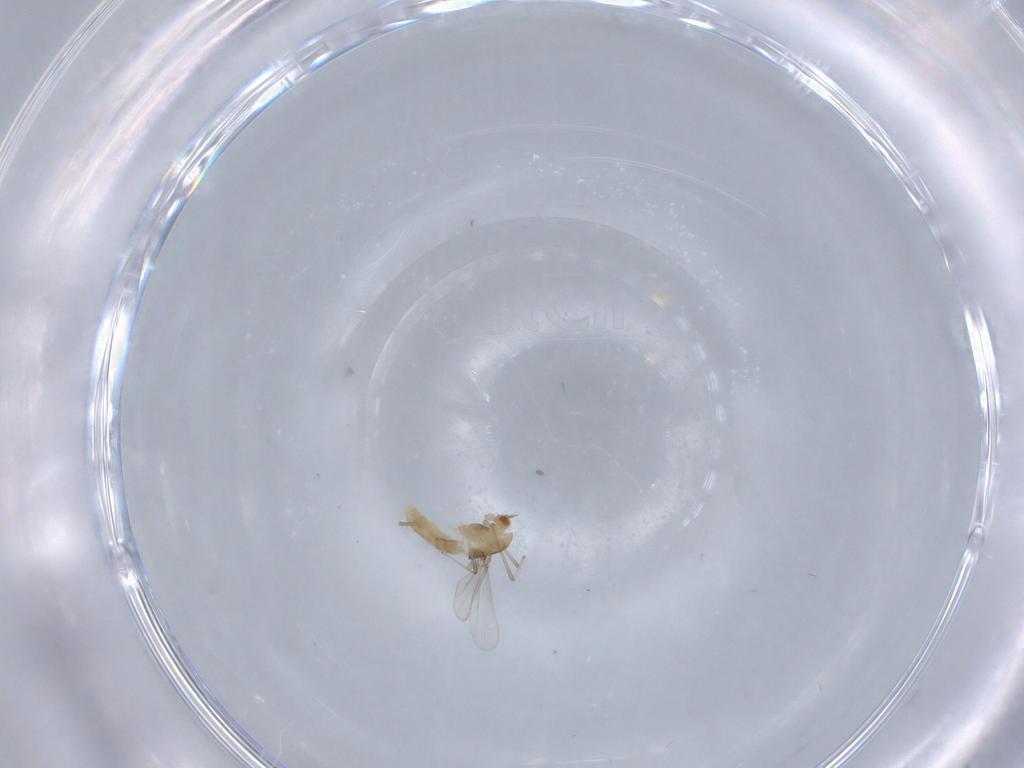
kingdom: Animalia
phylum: Arthropoda
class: Insecta
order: Diptera
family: Chironomidae
